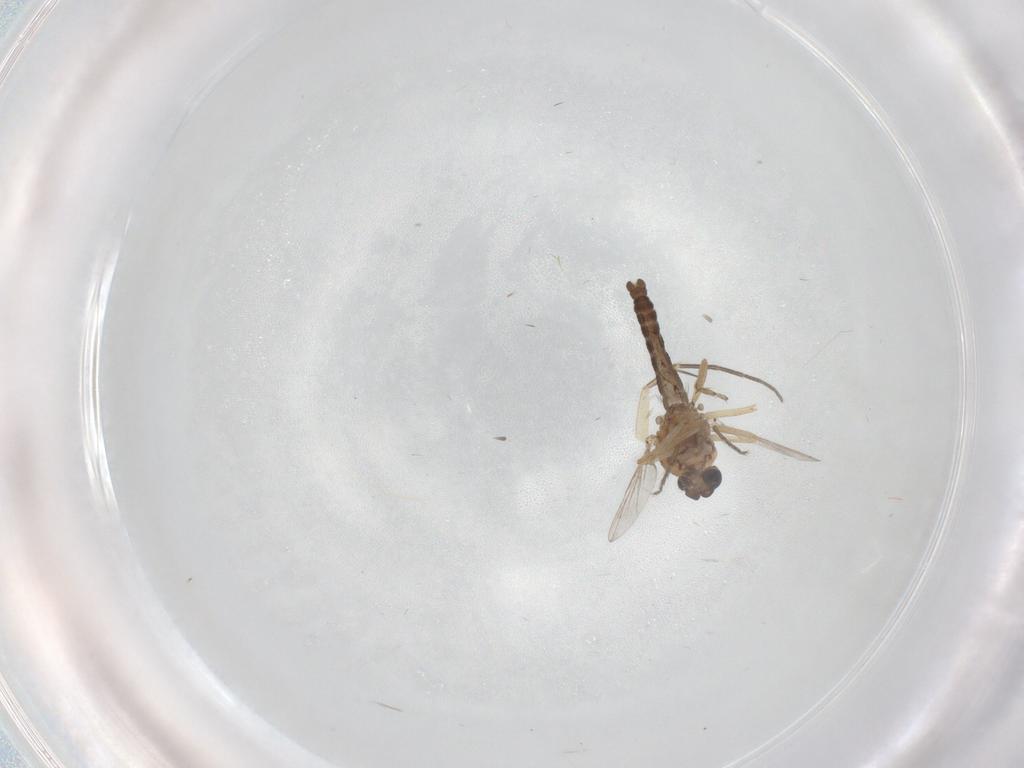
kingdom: Animalia
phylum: Arthropoda
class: Insecta
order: Diptera
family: Ceratopogonidae
